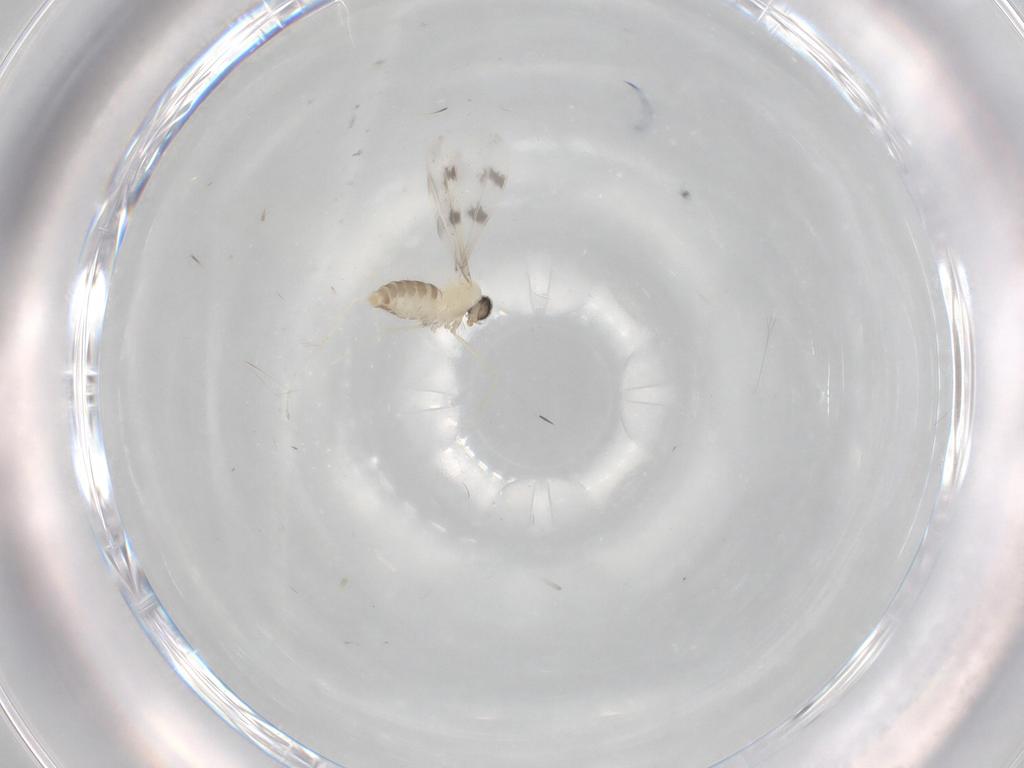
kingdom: Animalia
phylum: Arthropoda
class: Insecta
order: Diptera
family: Cecidomyiidae
